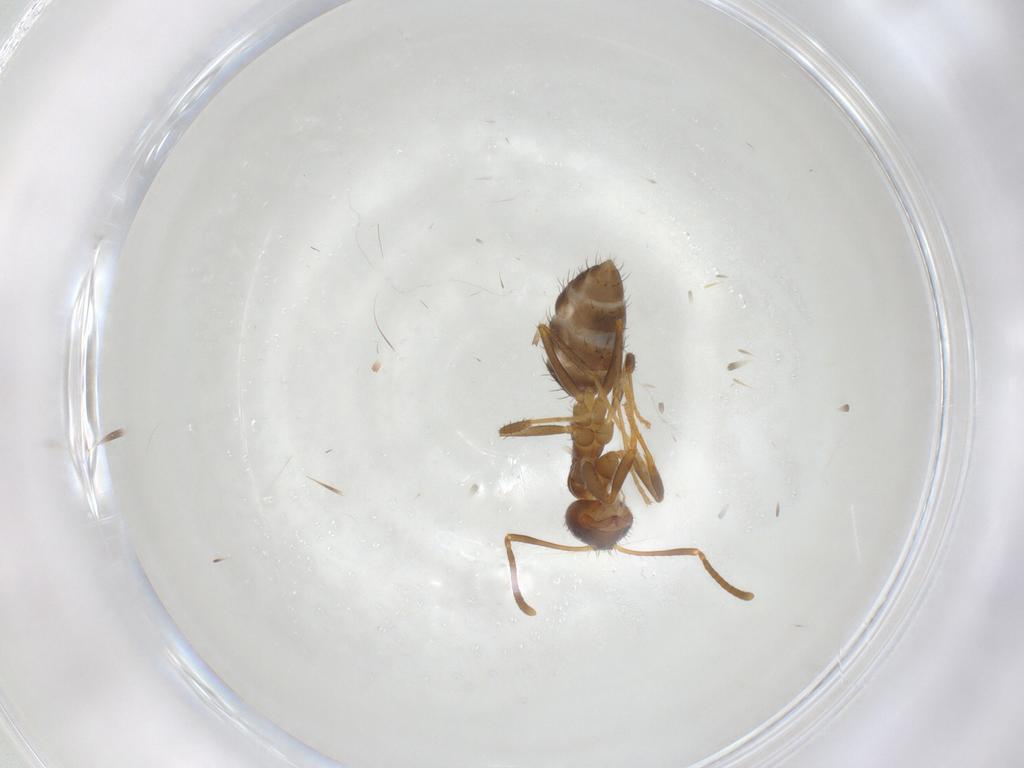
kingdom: Animalia
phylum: Arthropoda
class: Insecta
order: Hymenoptera
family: Formicidae
